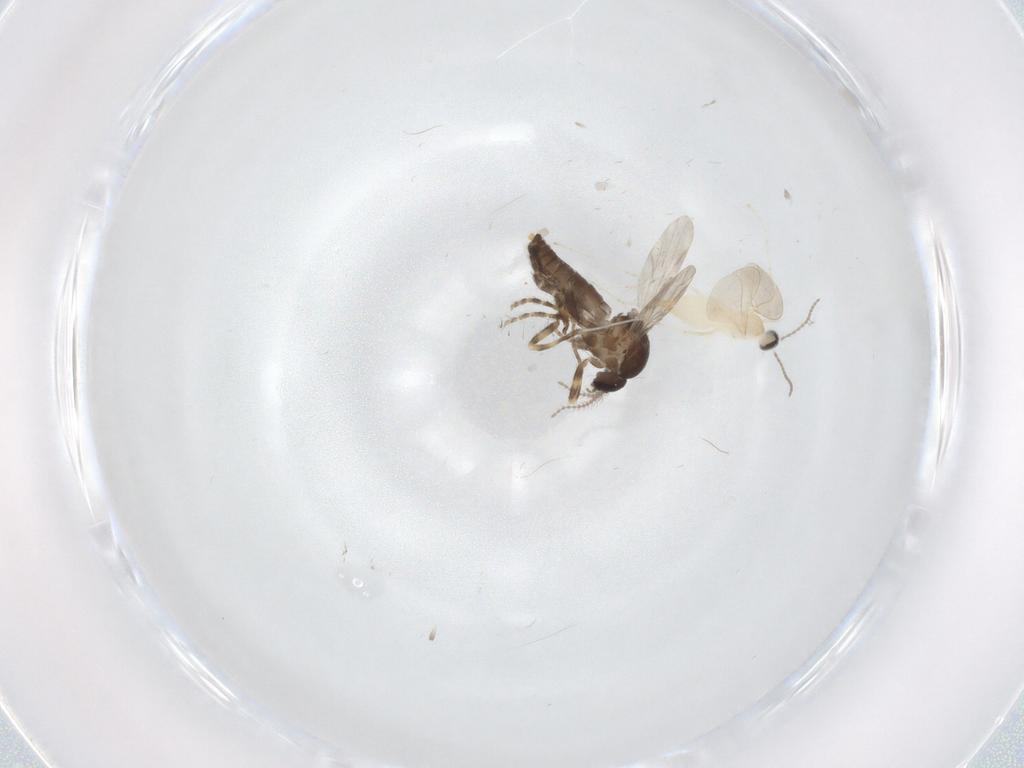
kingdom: Animalia
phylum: Arthropoda
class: Insecta
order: Diptera
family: Ceratopogonidae
